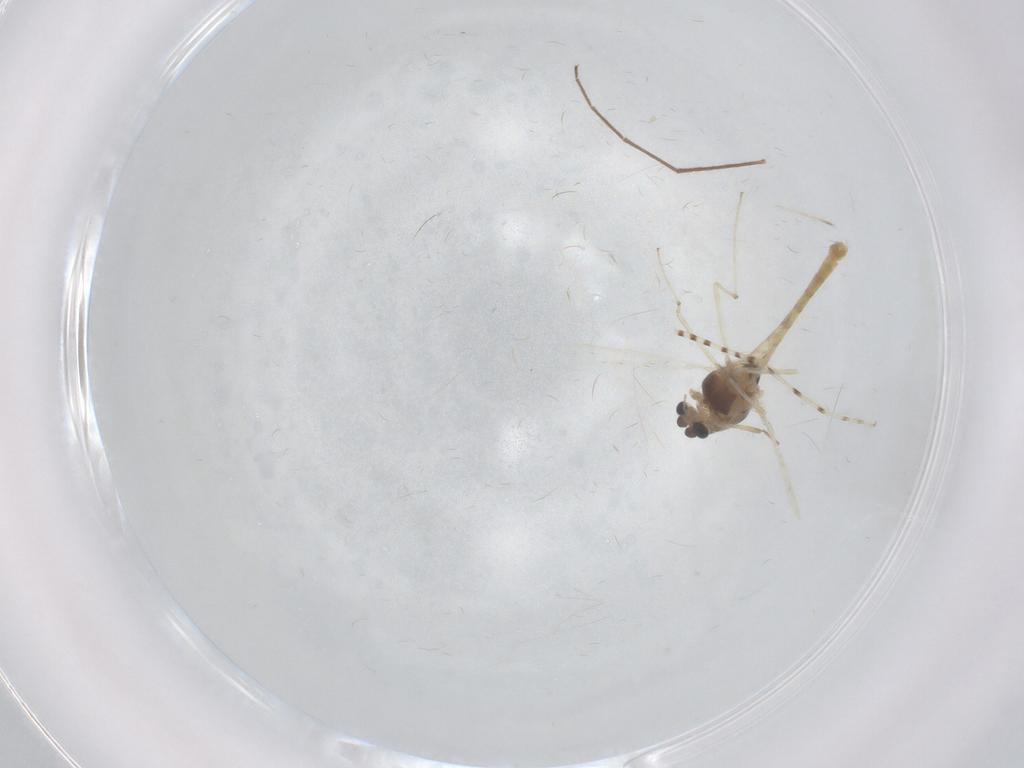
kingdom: Animalia
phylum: Arthropoda
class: Insecta
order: Diptera
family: Chironomidae
